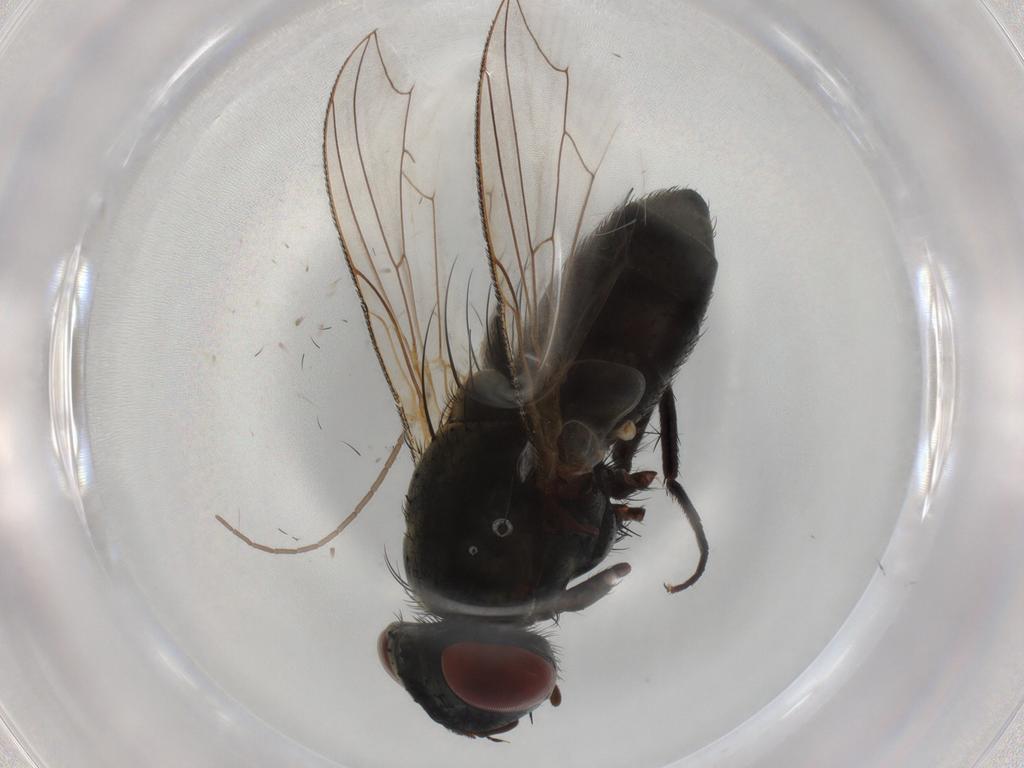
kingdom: Animalia
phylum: Arthropoda
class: Insecta
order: Diptera
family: Sarcophagidae
